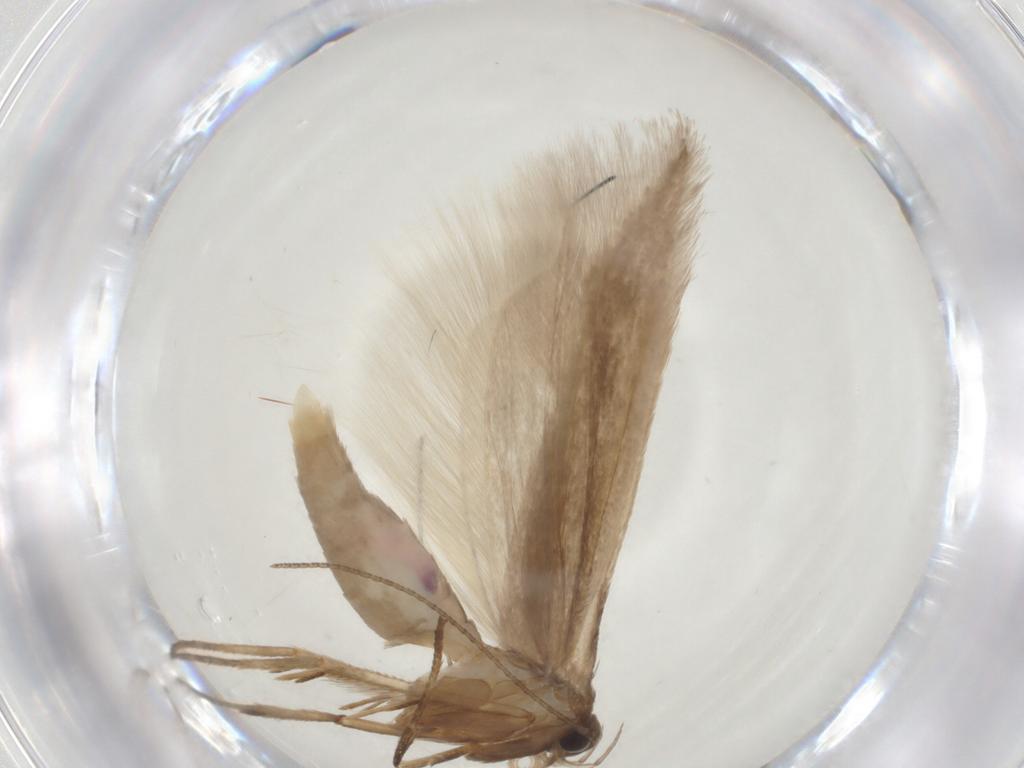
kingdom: Animalia
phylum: Arthropoda
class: Insecta
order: Lepidoptera
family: Gelechiidae
